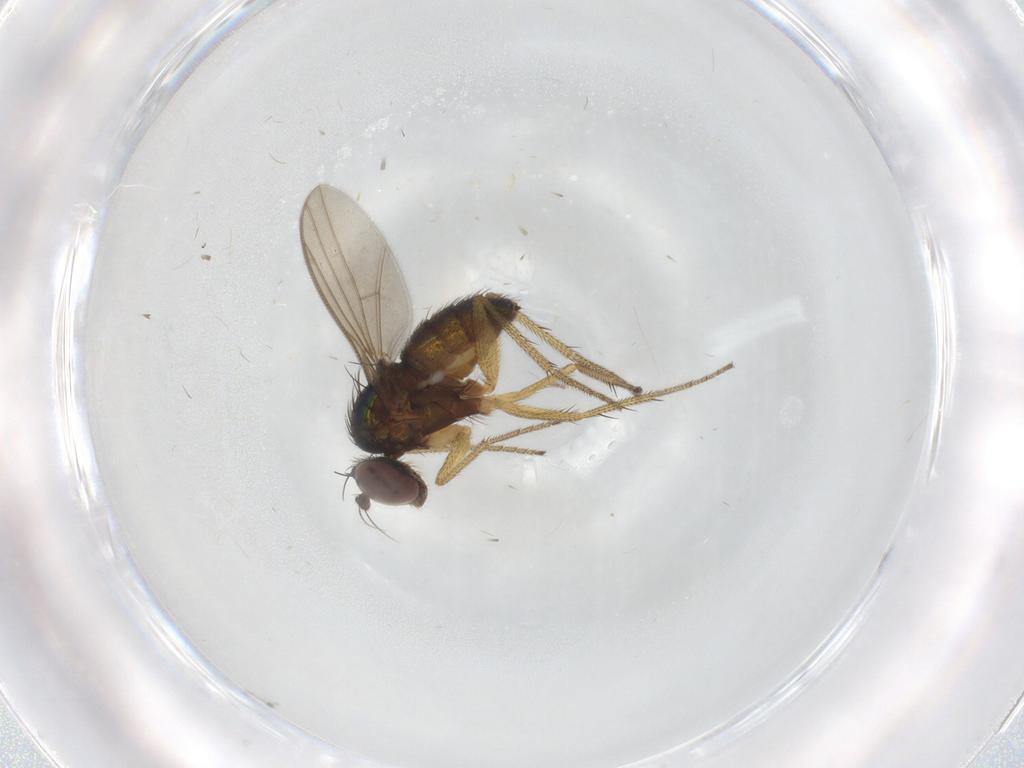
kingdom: Animalia
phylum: Arthropoda
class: Insecta
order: Diptera
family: Dolichopodidae
